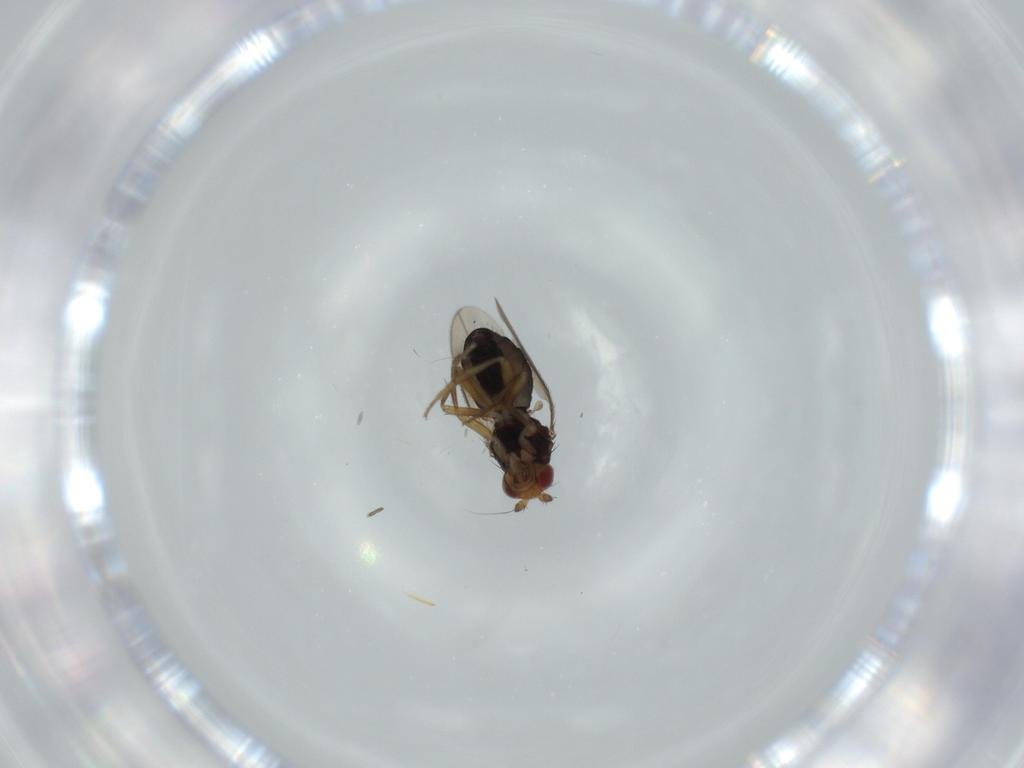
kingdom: Animalia
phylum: Arthropoda
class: Insecta
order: Diptera
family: Sphaeroceridae
